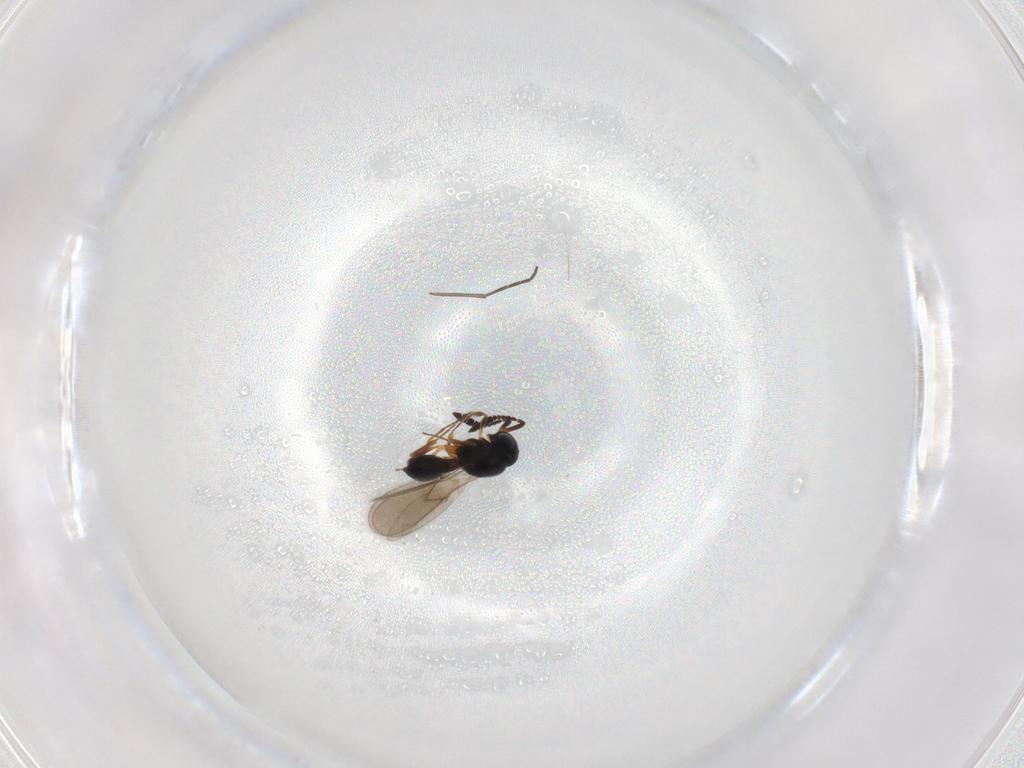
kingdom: Animalia
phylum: Arthropoda
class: Insecta
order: Hymenoptera
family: Scelionidae
